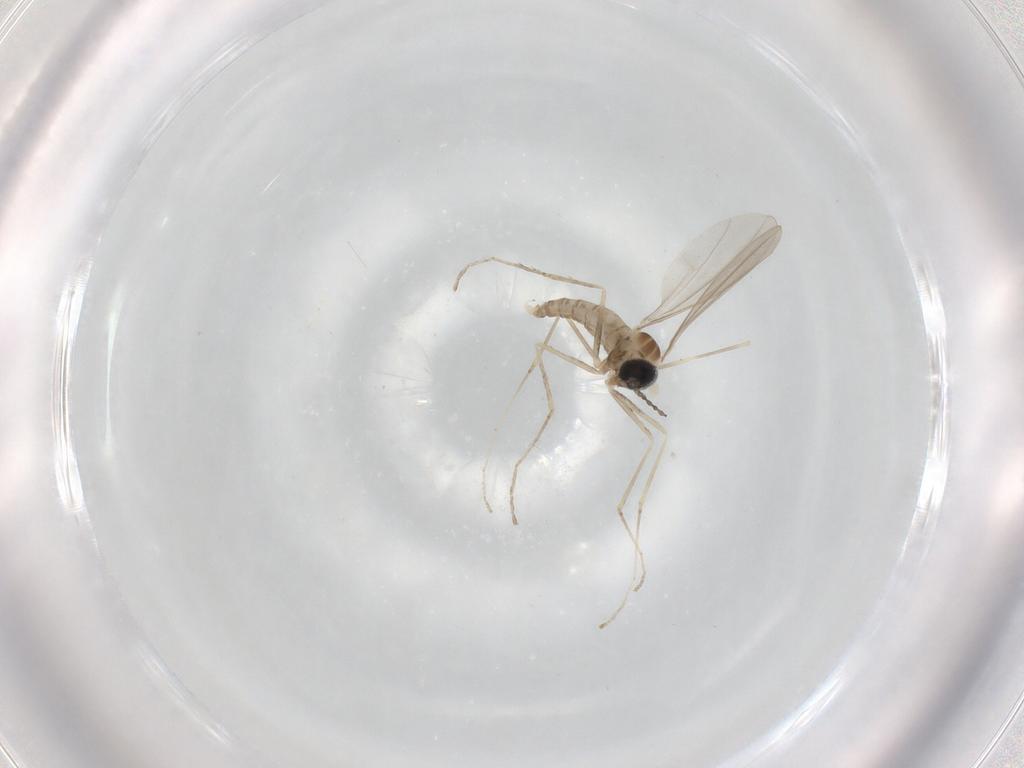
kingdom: Animalia
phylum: Arthropoda
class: Insecta
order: Diptera
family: Cecidomyiidae
